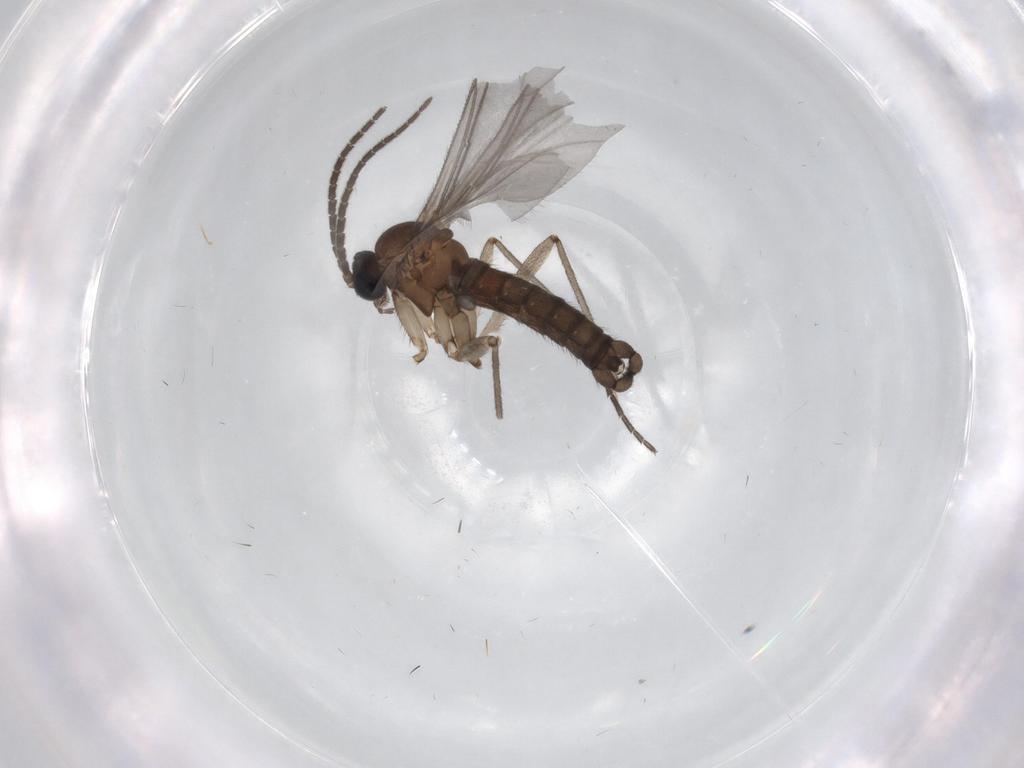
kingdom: Animalia
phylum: Arthropoda
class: Insecta
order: Diptera
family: Sciaridae
